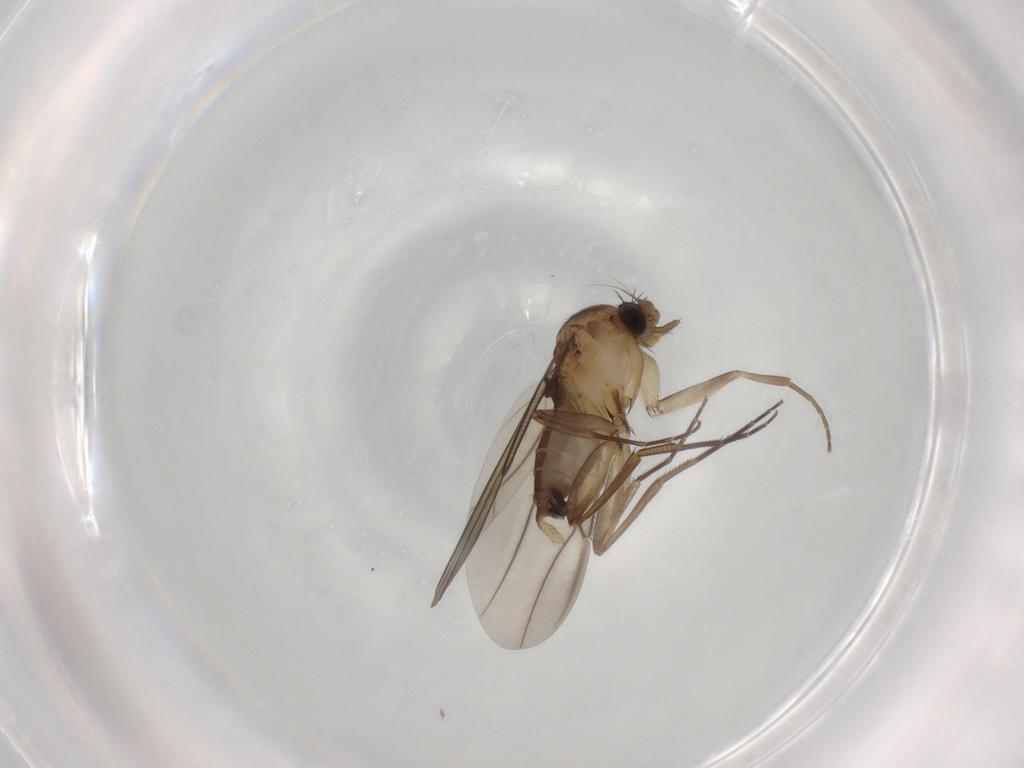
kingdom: Animalia
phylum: Arthropoda
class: Insecta
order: Diptera
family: Phoridae
